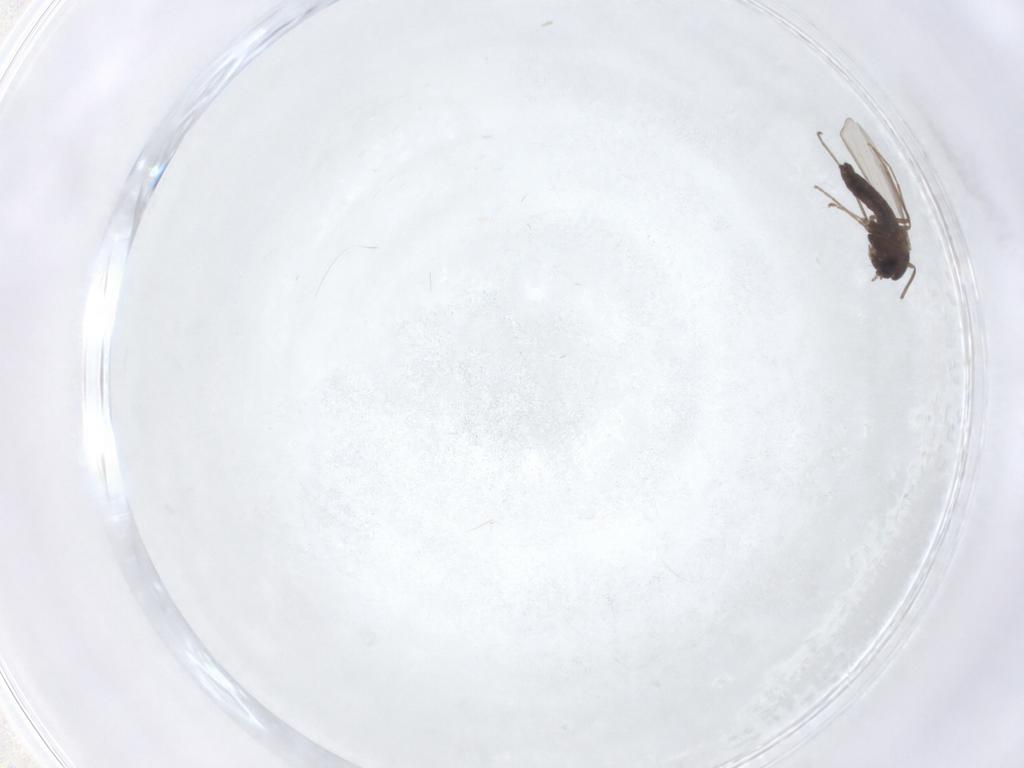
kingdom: Animalia
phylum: Arthropoda
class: Insecta
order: Diptera
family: Chironomidae
